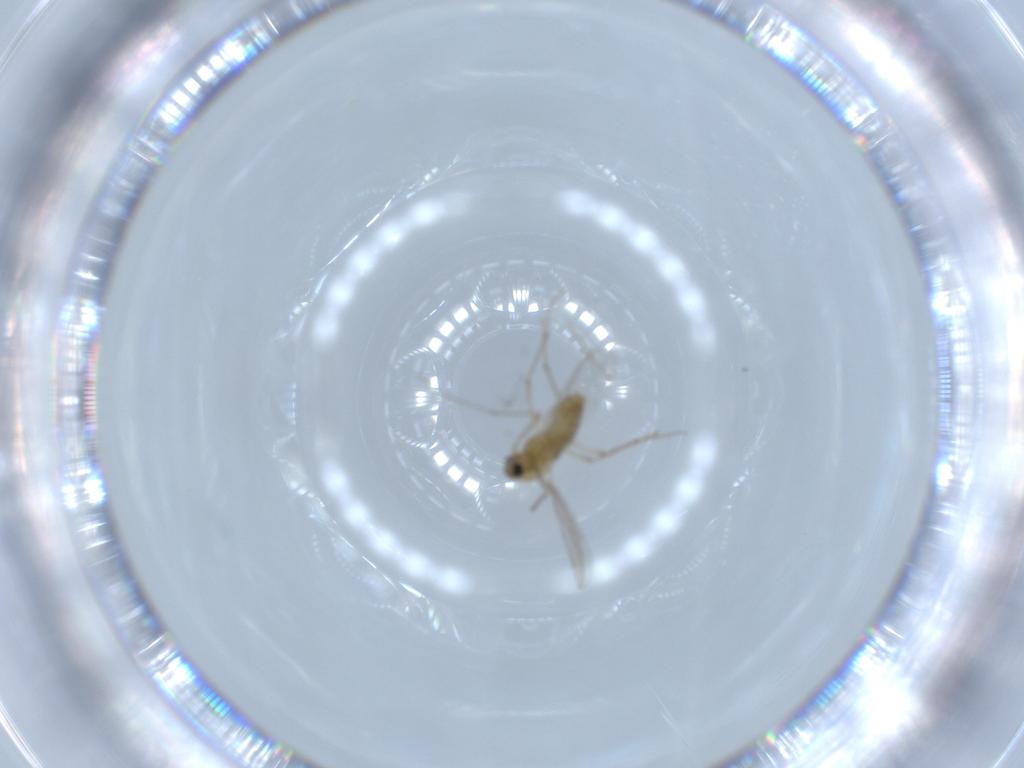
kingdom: Animalia
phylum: Arthropoda
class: Insecta
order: Diptera
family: Chironomidae
